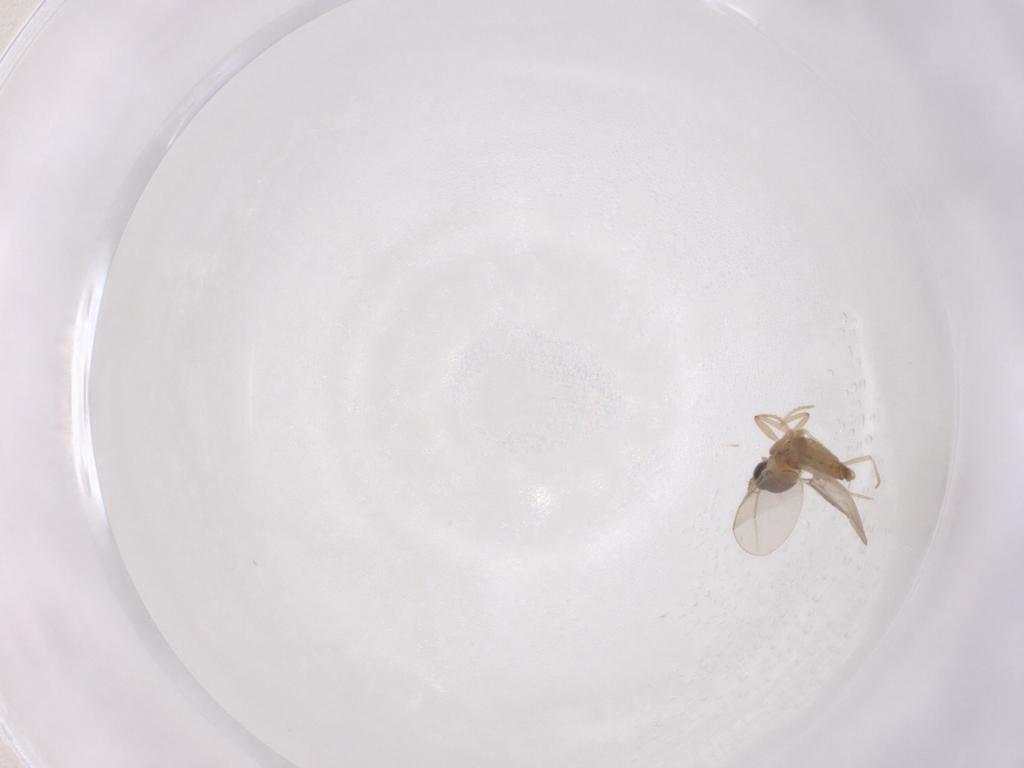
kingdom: Animalia
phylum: Arthropoda
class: Insecta
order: Diptera
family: Cecidomyiidae
